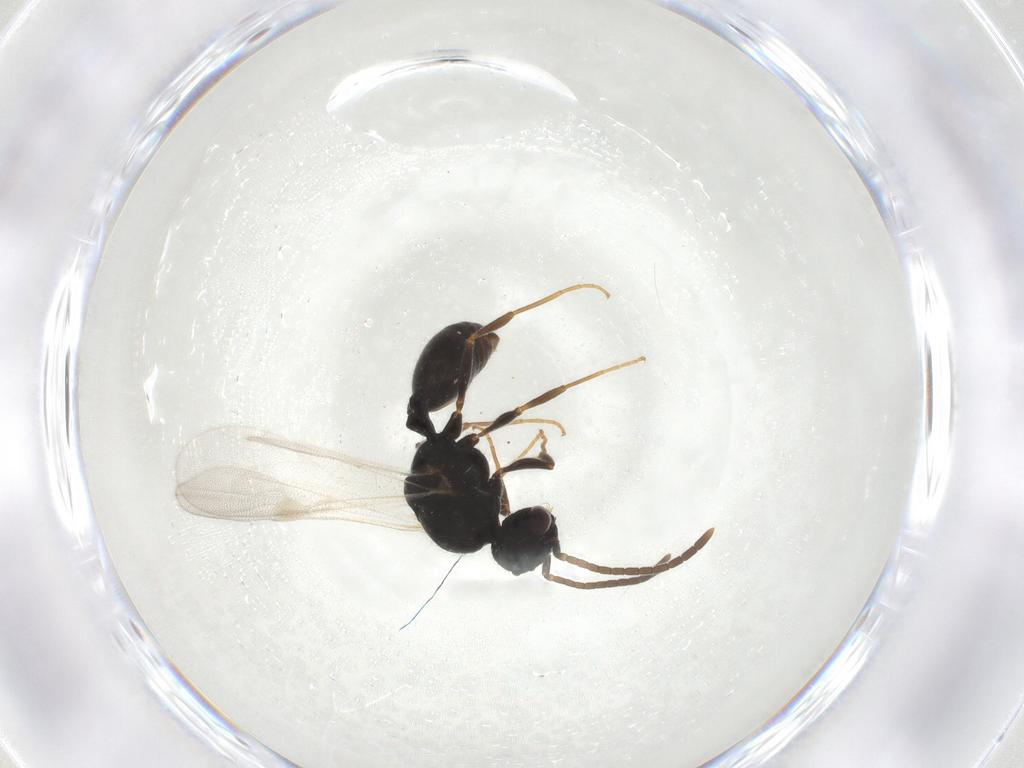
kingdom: Animalia
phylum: Arthropoda
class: Insecta
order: Hymenoptera
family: Formicidae
